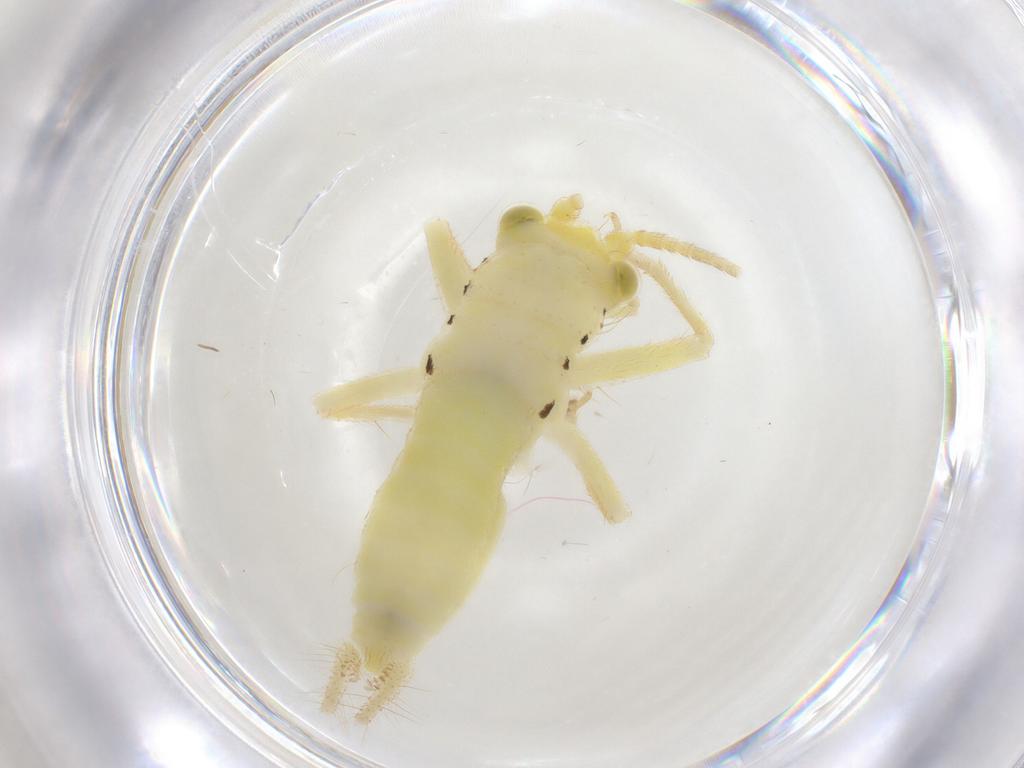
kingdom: Animalia
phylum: Arthropoda
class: Insecta
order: Orthoptera
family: Trigonidiidae
